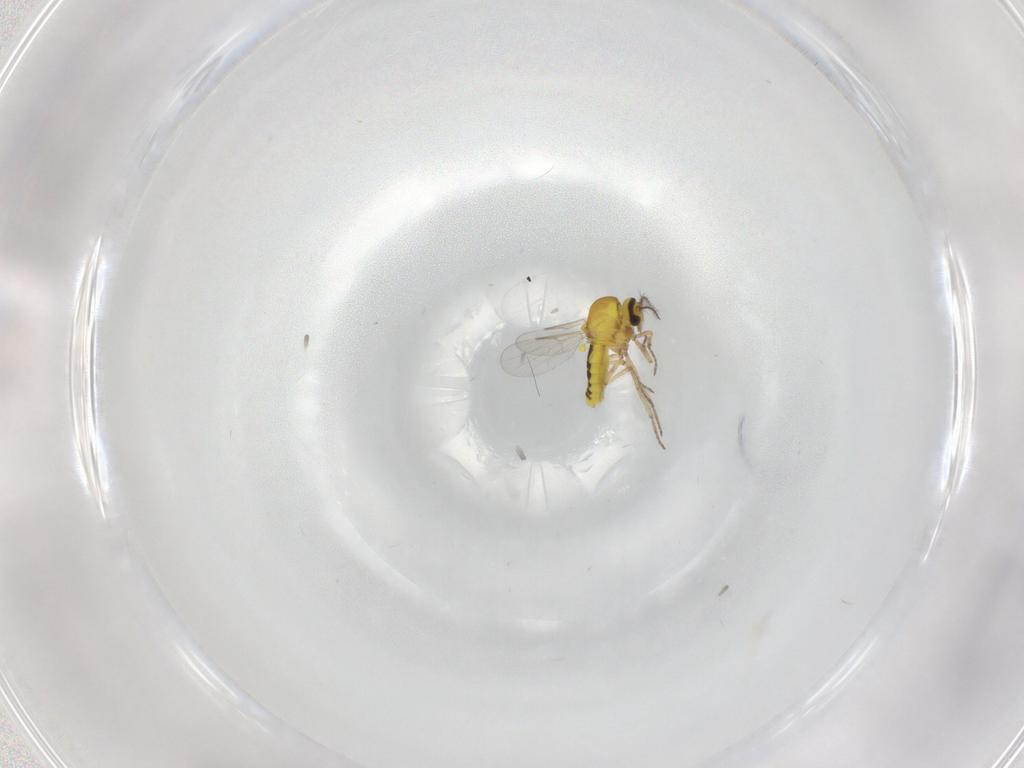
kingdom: Animalia
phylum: Arthropoda
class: Insecta
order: Diptera
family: Ceratopogonidae
